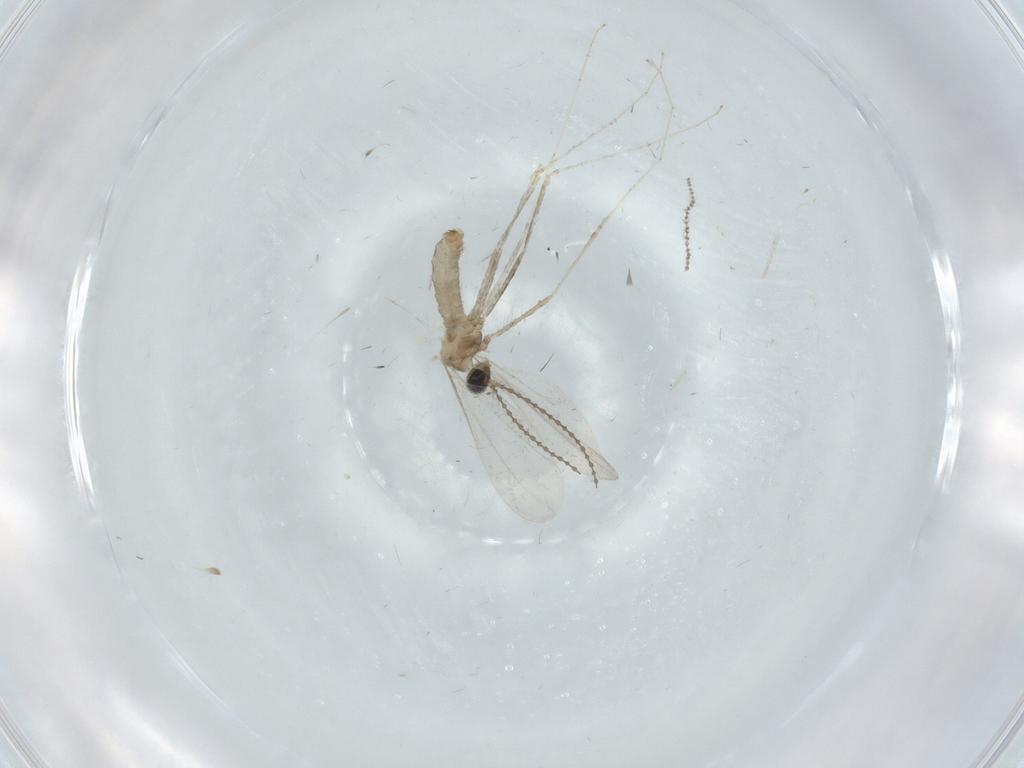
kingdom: Animalia
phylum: Arthropoda
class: Insecta
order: Diptera
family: Cecidomyiidae
